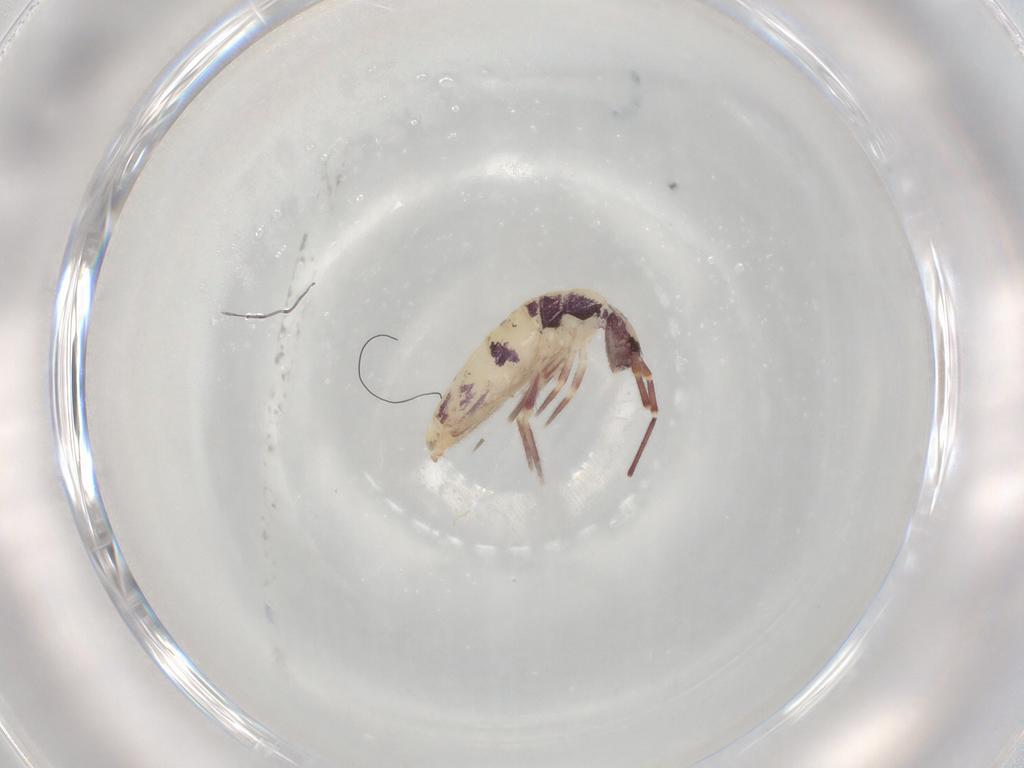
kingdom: Animalia
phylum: Arthropoda
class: Collembola
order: Entomobryomorpha
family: Entomobryidae
